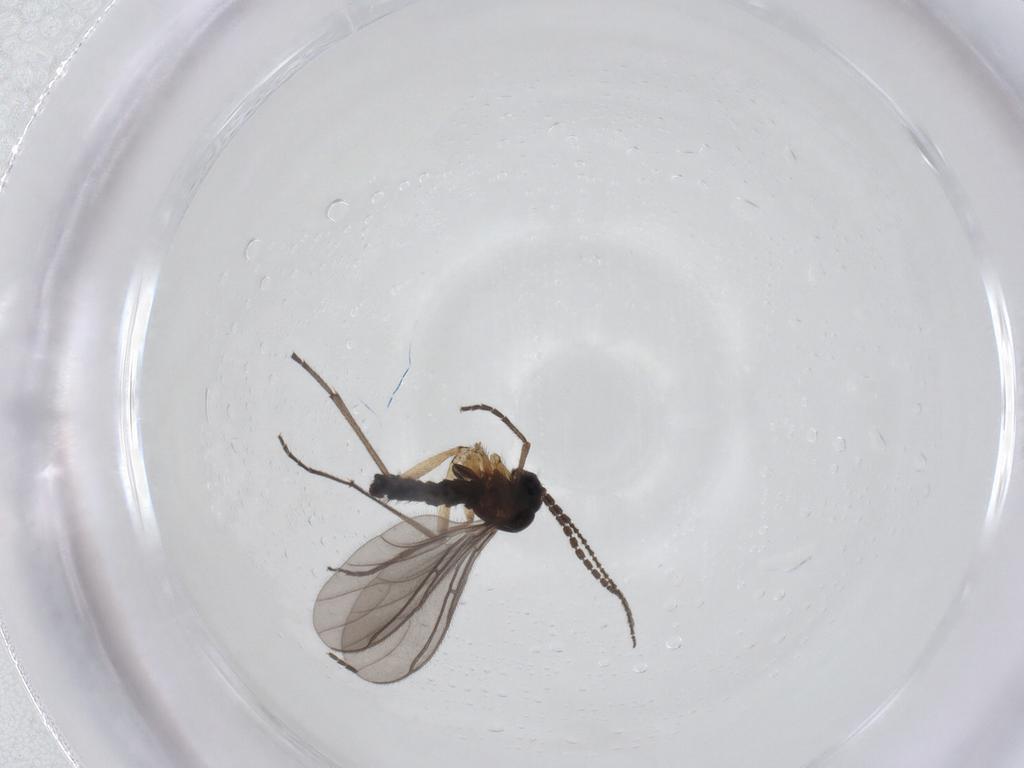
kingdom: Animalia
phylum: Arthropoda
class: Insecta
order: Diptera
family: Sciaridae
